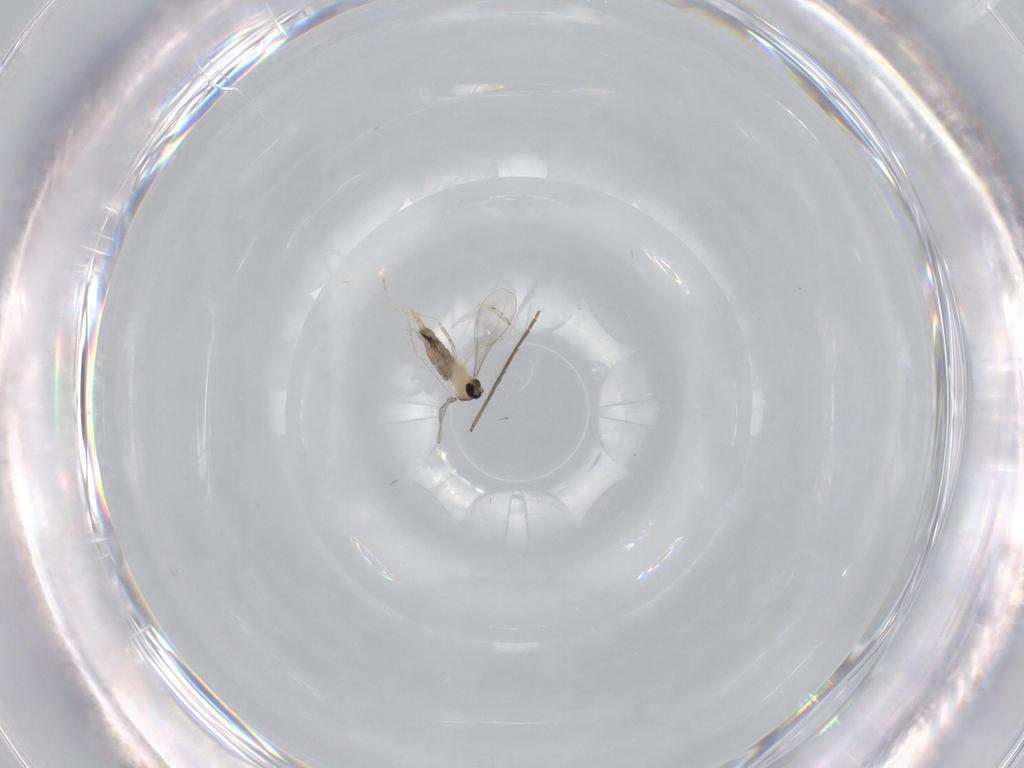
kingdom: Animalia
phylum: Arthropoda
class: Insecta
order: Diptera
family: Cecidomyiidae
